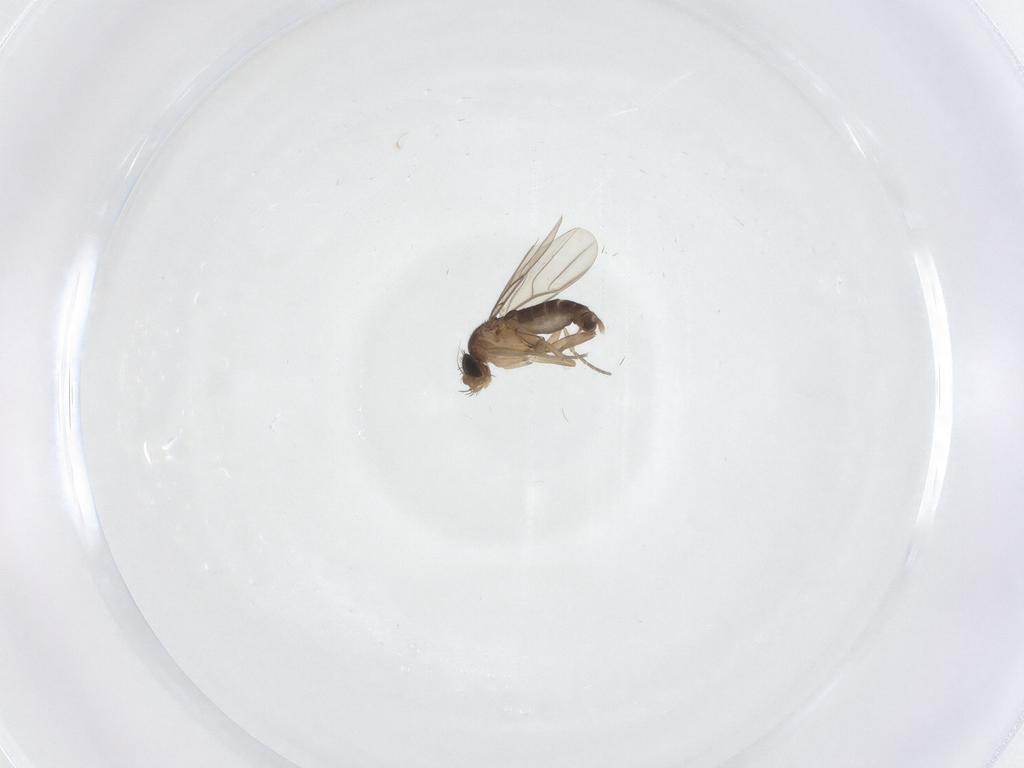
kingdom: Animalia
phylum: Arthropoda
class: Insecta
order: Diptera
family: Phoridae
